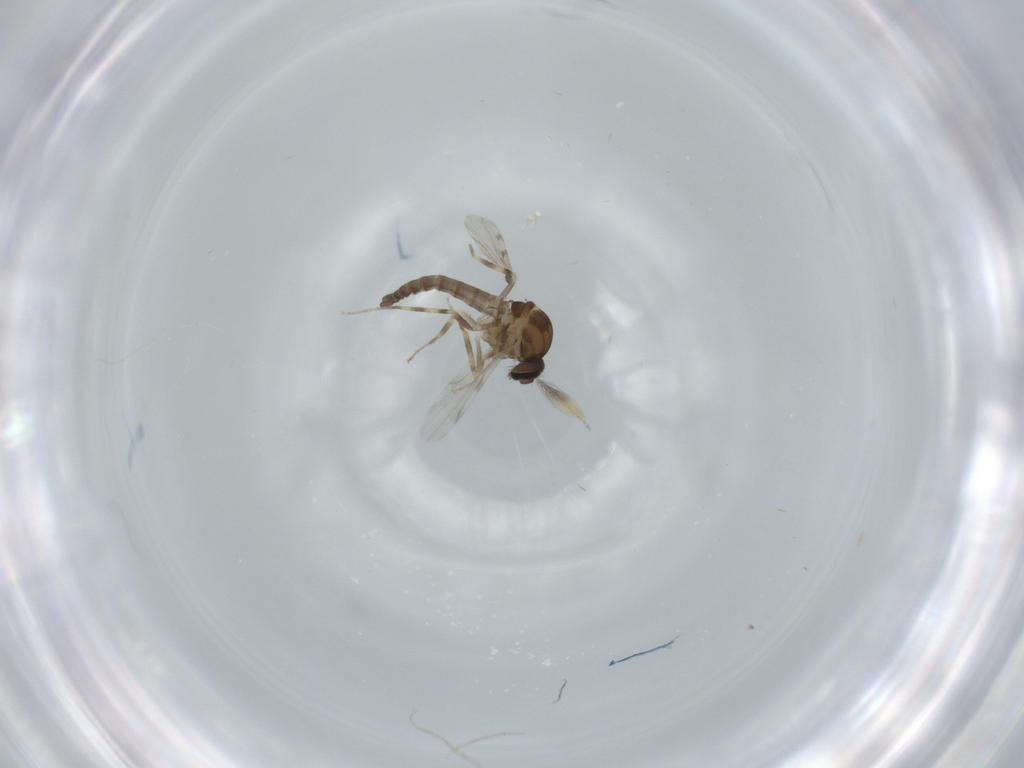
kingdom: Animalia
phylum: Arthropoda
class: Insecta
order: Diptera
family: Ceratopogonidae
